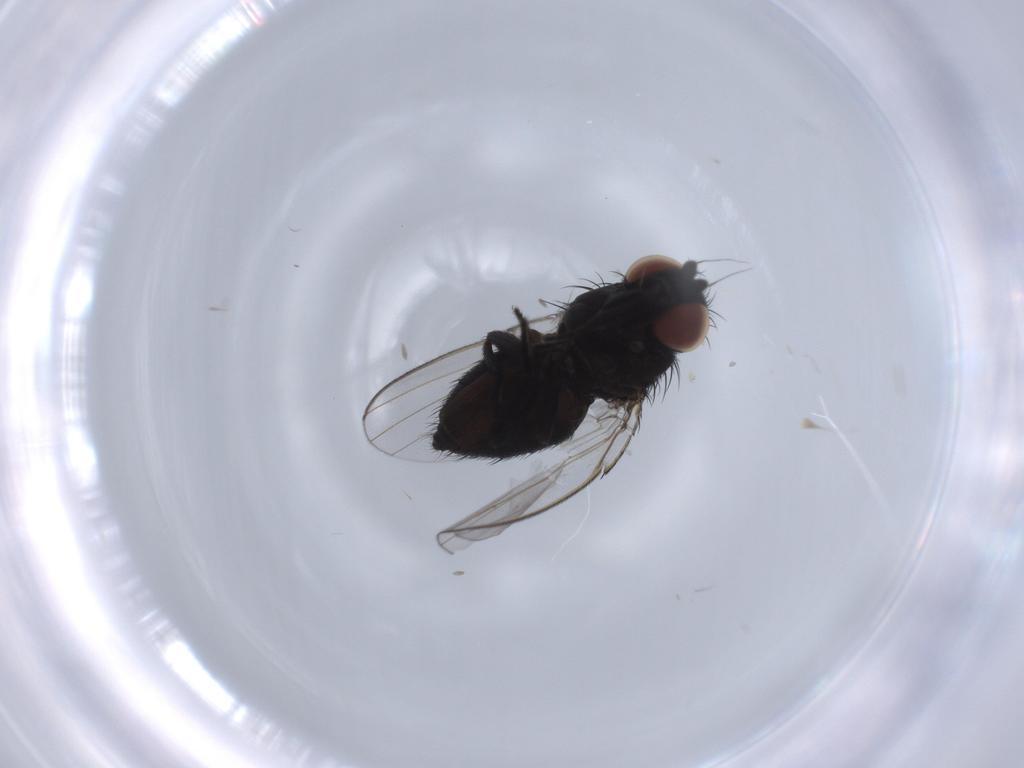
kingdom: Animalia
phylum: Arthropoda
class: Insecta
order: Diptera
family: Milichiidae
